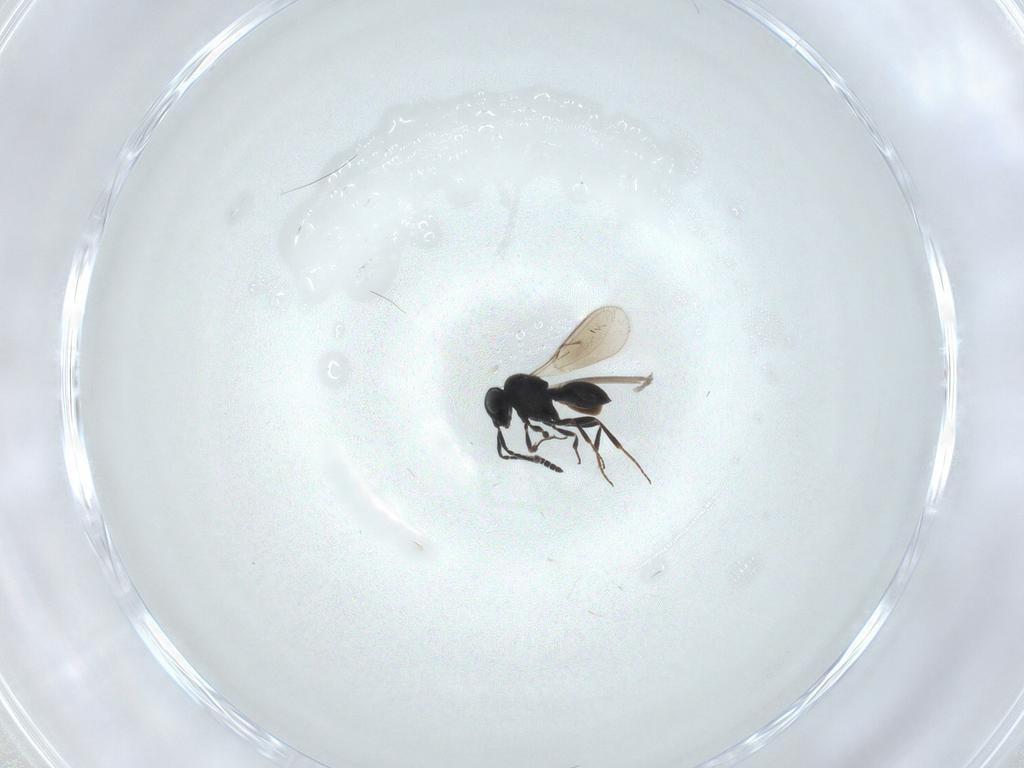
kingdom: Animalia
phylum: Arthropoda
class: Insecta
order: Hymenoptera
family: Scelionidae
